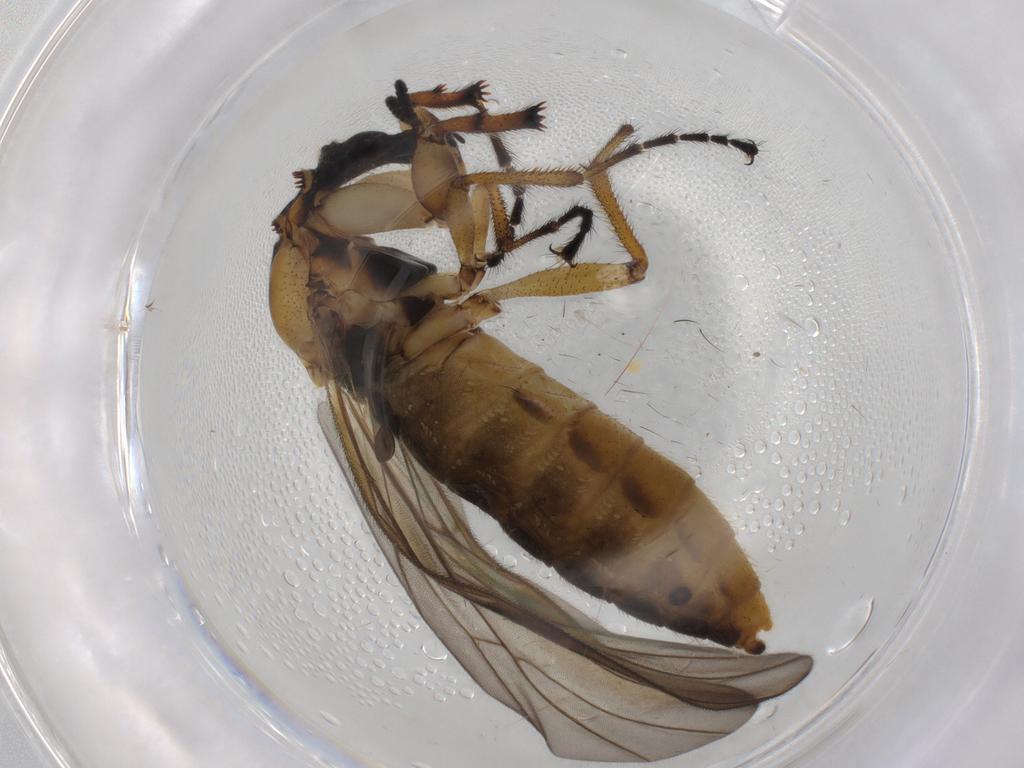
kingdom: Animalia
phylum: Arthropoda
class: Insecta
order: Diptera
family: Bibionidae
